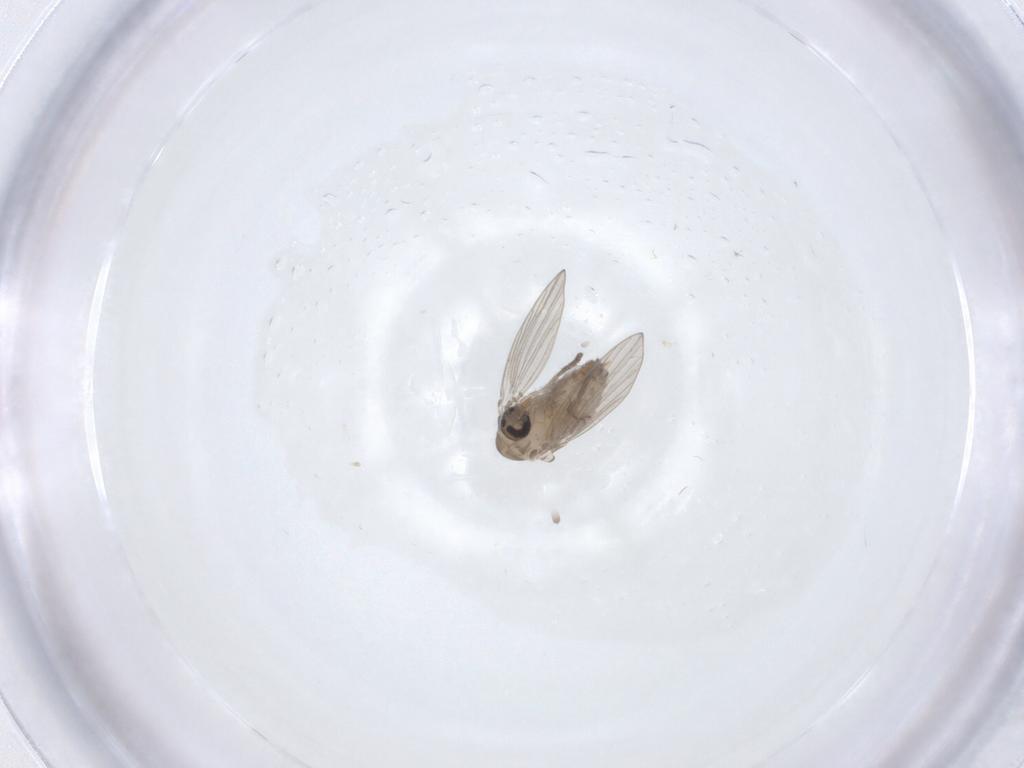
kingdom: Animalia
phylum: Arthropoda
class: Insecta
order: Diptera
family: Psychodidae
